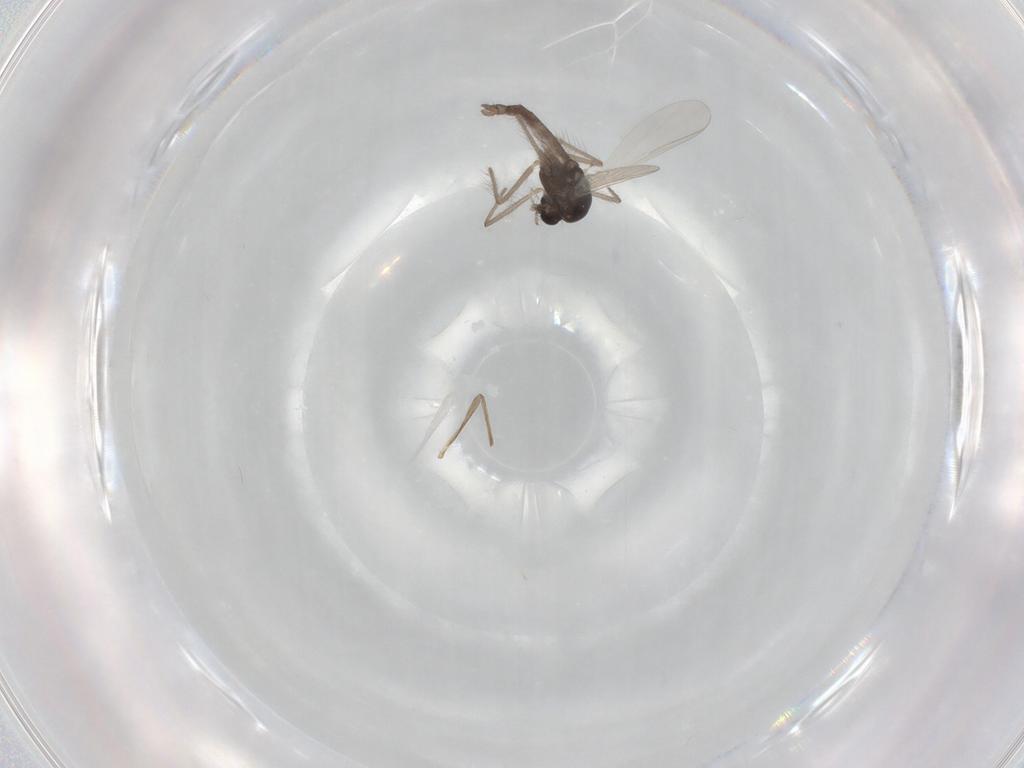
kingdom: Animalia
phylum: Arthropoda
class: Insecta
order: Diptera
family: Chironomidae
